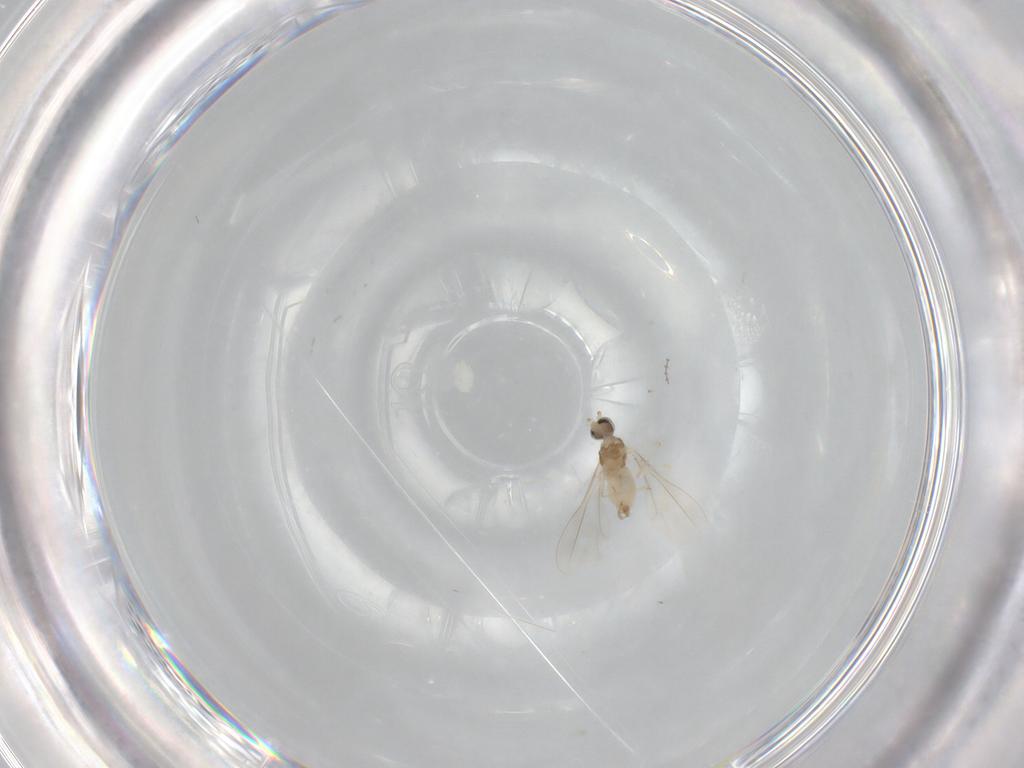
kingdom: Animalia
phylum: Arthropoda
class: Insecta
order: Diptera
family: Cecidomyiidae
